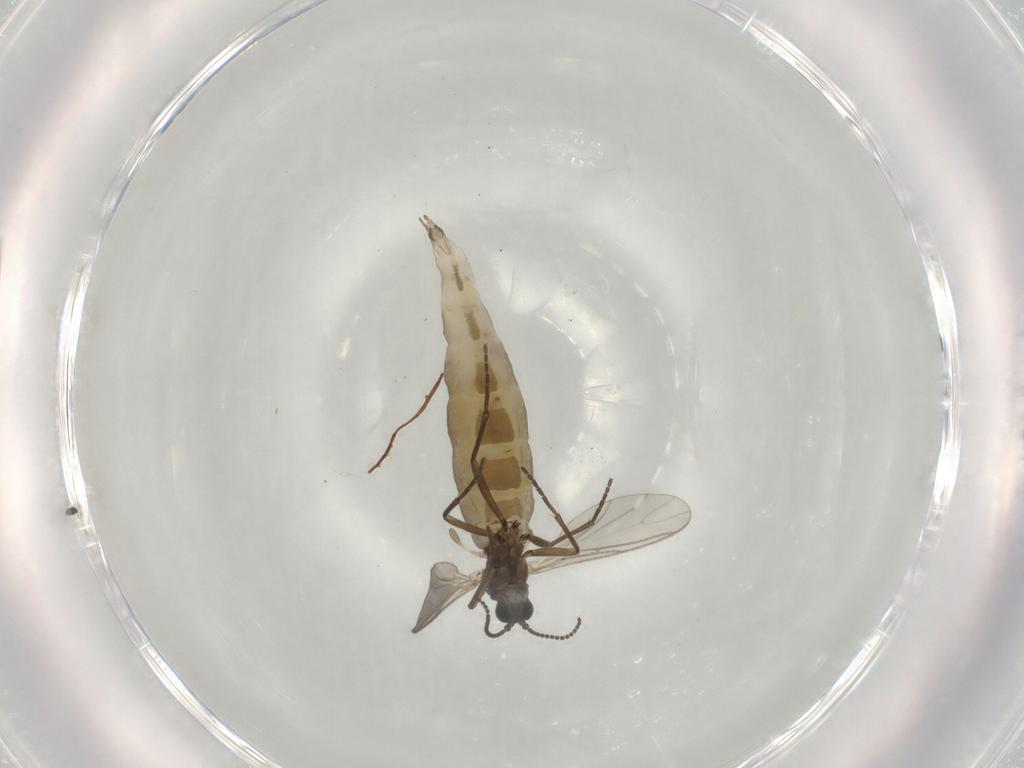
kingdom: Animalia
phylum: Arthropoda
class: Insecta
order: Diptera
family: Sciaridae
